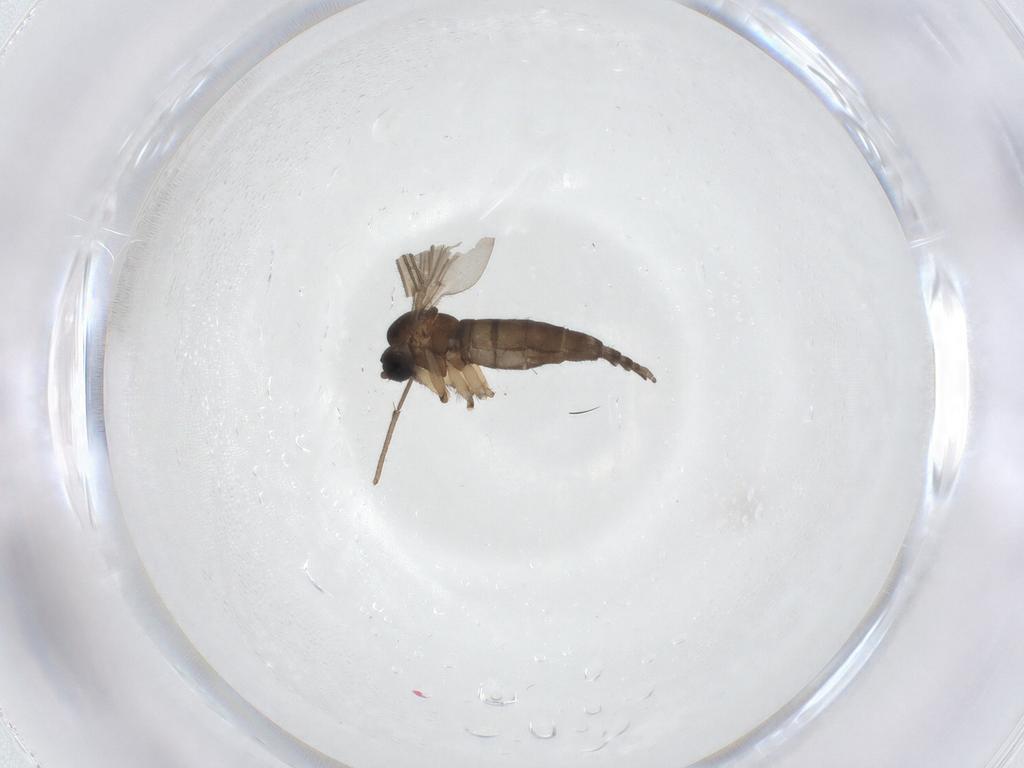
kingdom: Animalia
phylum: Arthropoda
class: Insecta
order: Diptera
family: Sciaridae
